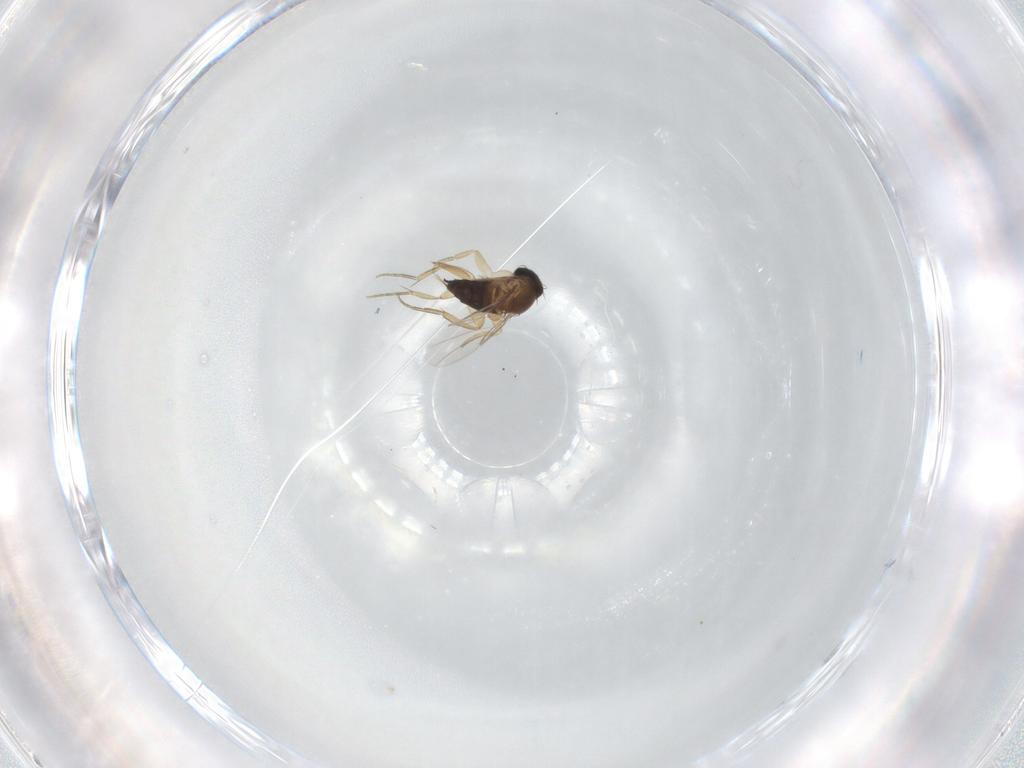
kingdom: Animalia
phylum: Arthropoda
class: Insecta
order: Diptera
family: Phoridae
